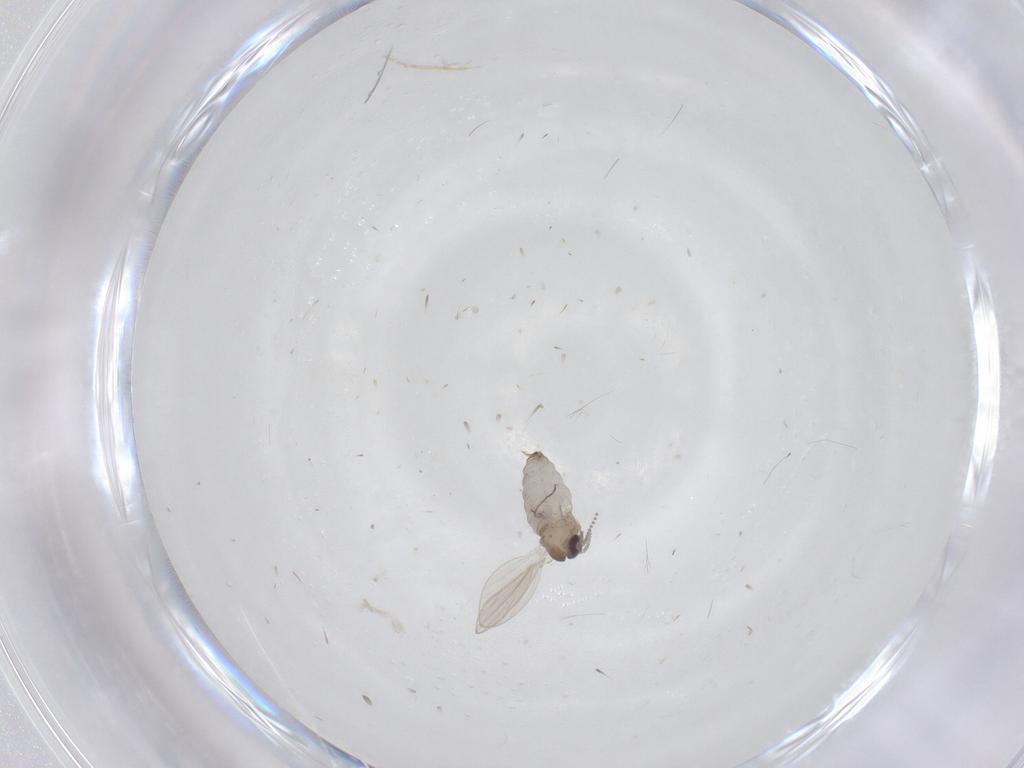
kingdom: Animalia
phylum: Arthropoda
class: Insecta
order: Diptera
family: Psychodidae
